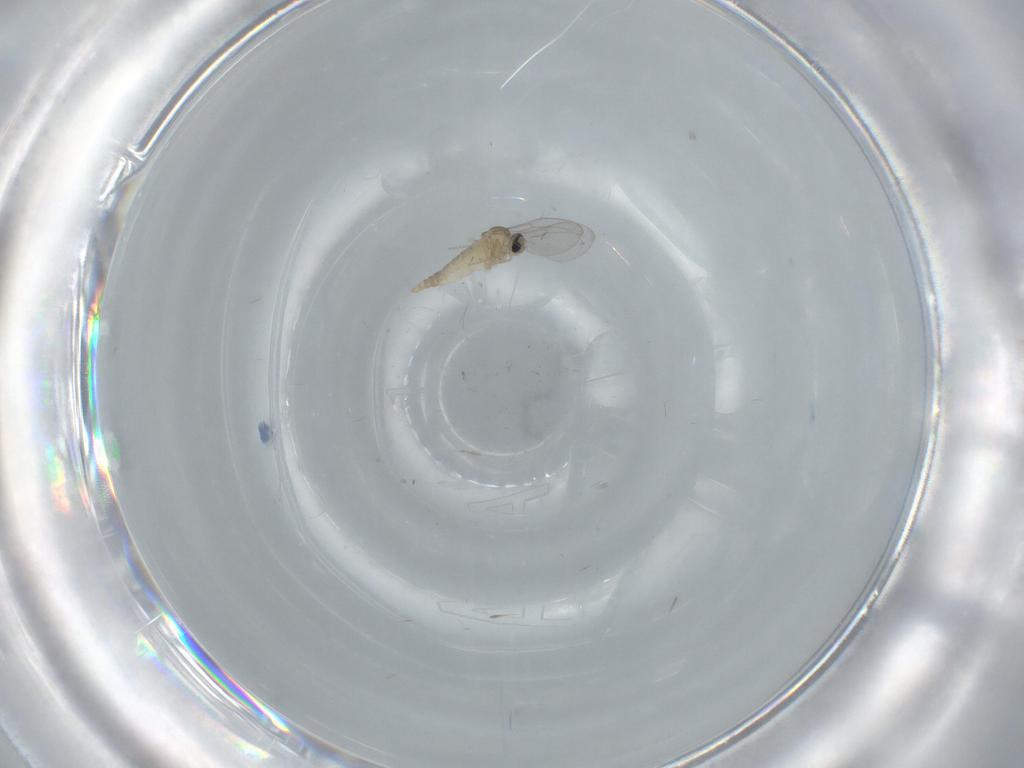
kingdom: Animalia
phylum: Arthropoda
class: Insecta
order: Diptera
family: Cecidomyiidae
